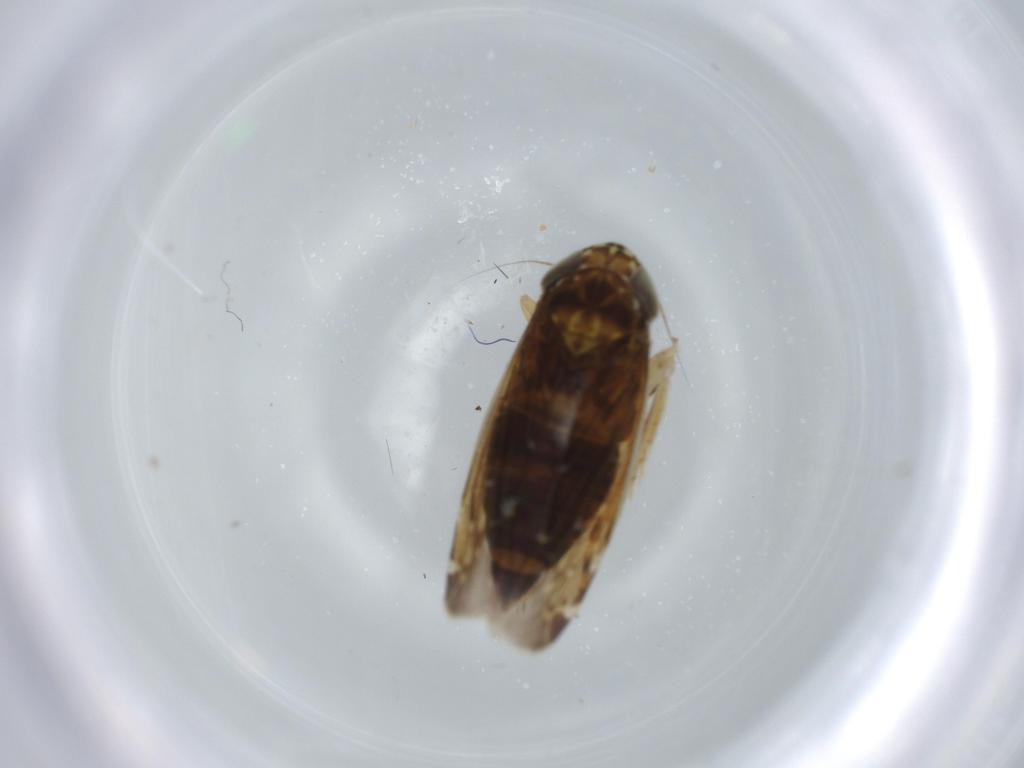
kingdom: Animalia
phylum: Arthropoda
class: Insecta
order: Hemiptera
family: Cicadellidae
